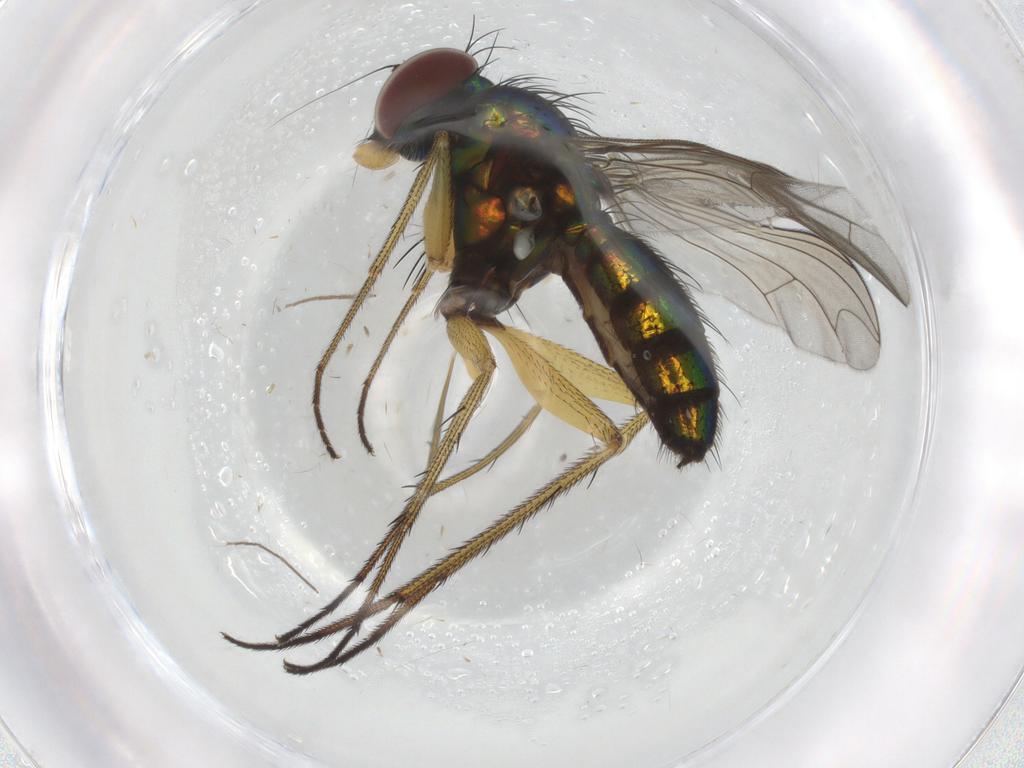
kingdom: Animalia
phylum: Arthropoda
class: Insecta
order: Diptera
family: Dolichopodidae
